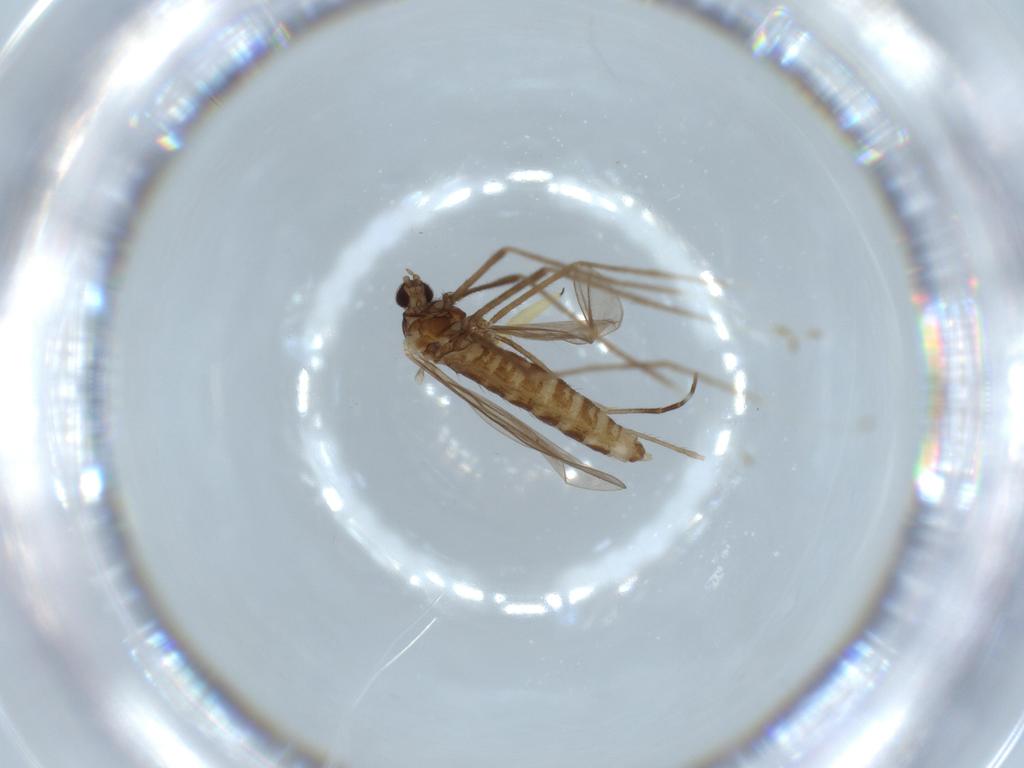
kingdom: Animalia
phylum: Arthropoda
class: Insecta
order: Diptera
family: Cecidomyiidae
